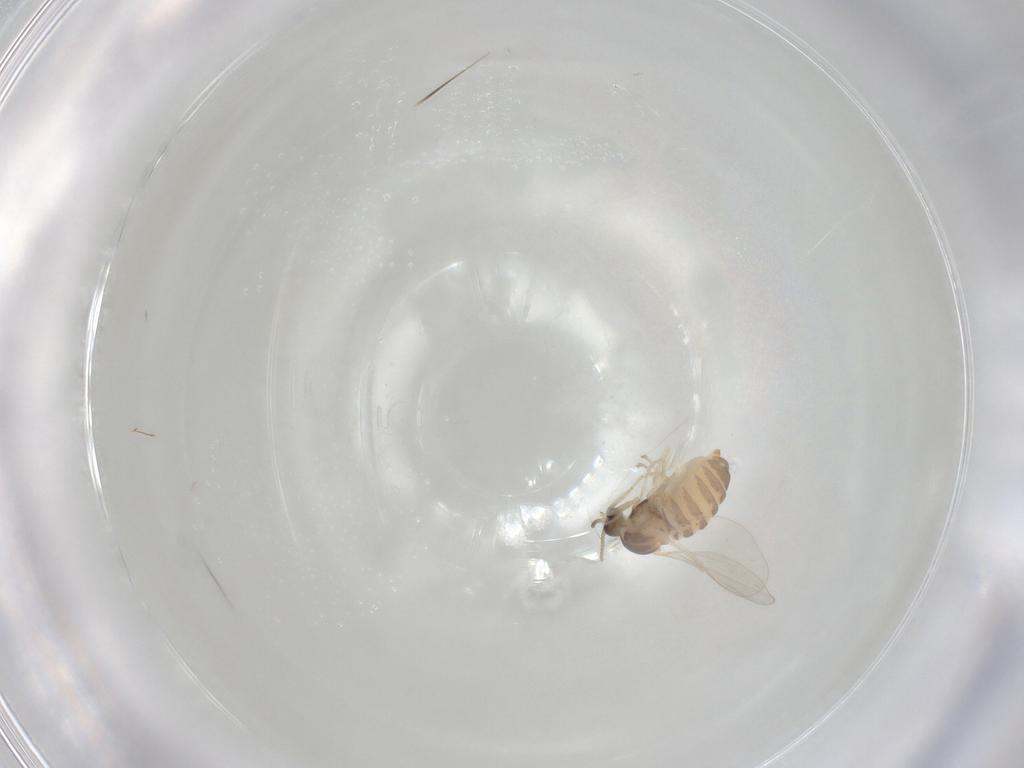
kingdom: Animalia
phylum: Arthropoda
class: Insecta
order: Diptera
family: Cecidomyiidae
